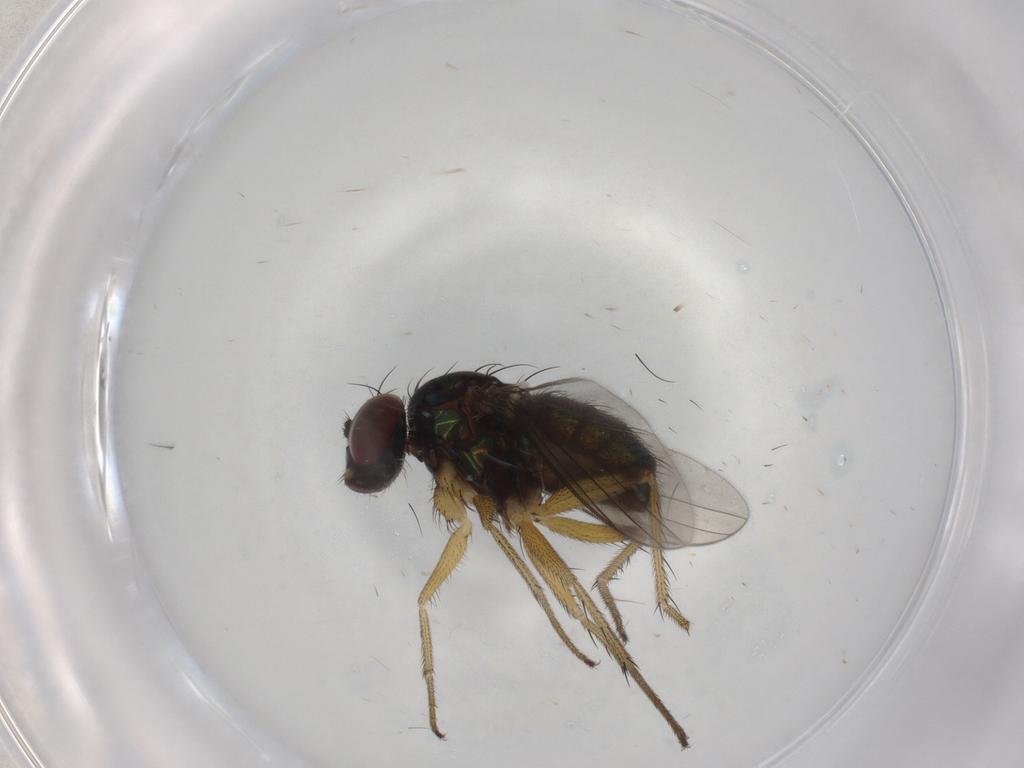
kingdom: Animalia
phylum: Arthropoda
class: Insecta
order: Diptera
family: Dolichopodidae
